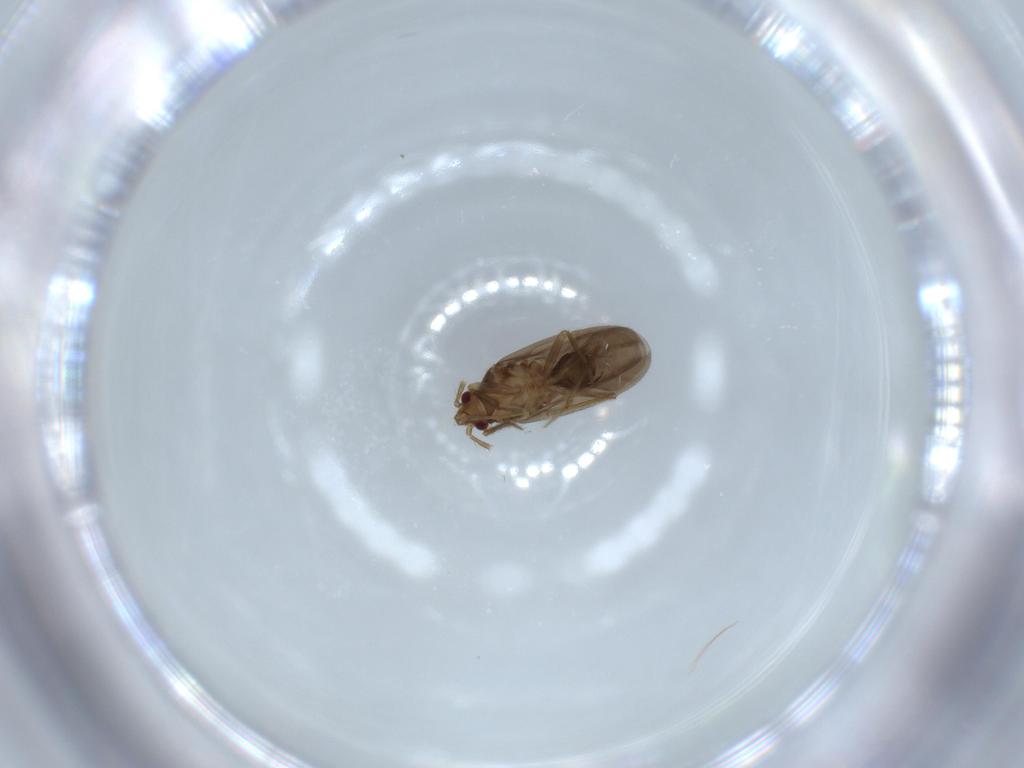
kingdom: Animalia
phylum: Arthropoda
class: Insecta
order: Hemiptera
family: Ceratocombidae
